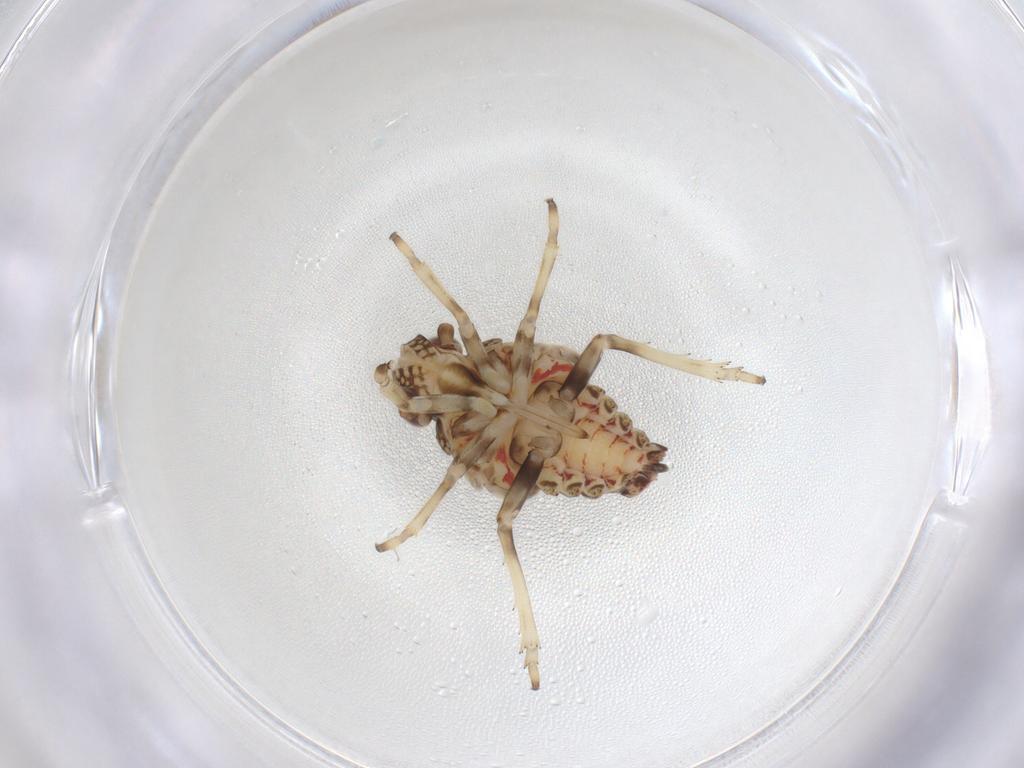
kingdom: Animalia
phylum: Arthropoda
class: Insecta
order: Hemiptera
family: Tropiduchidae
